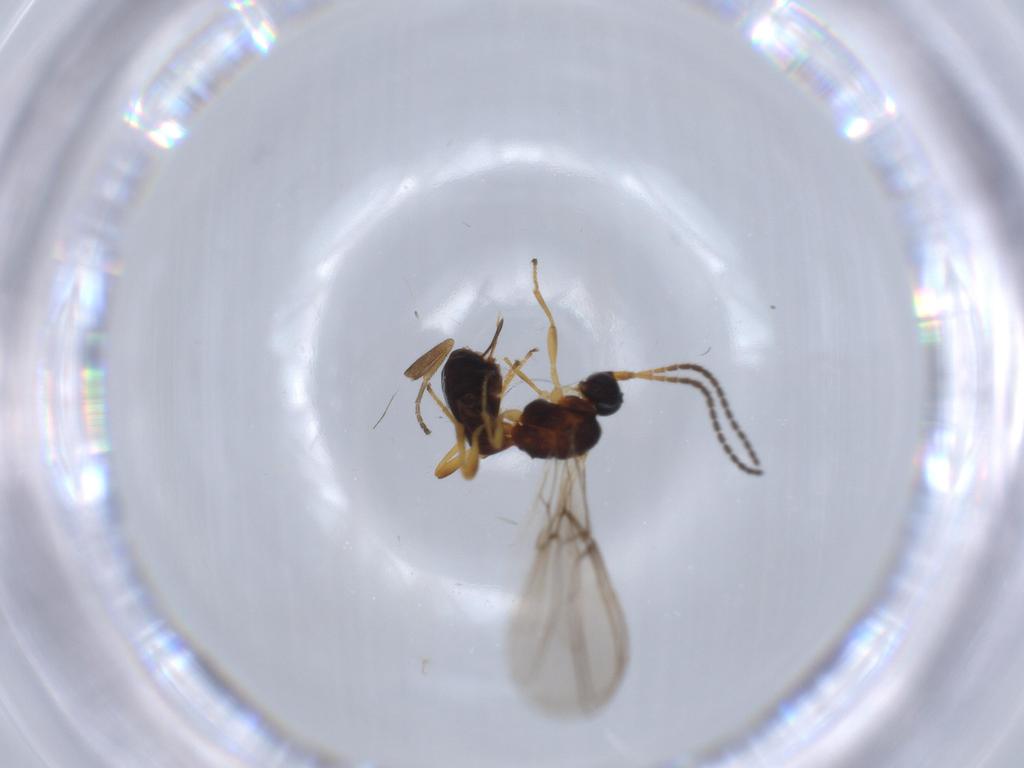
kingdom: Animalia
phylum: Arthropoda
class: Insecta
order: Hymenoptera
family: Braconidae
